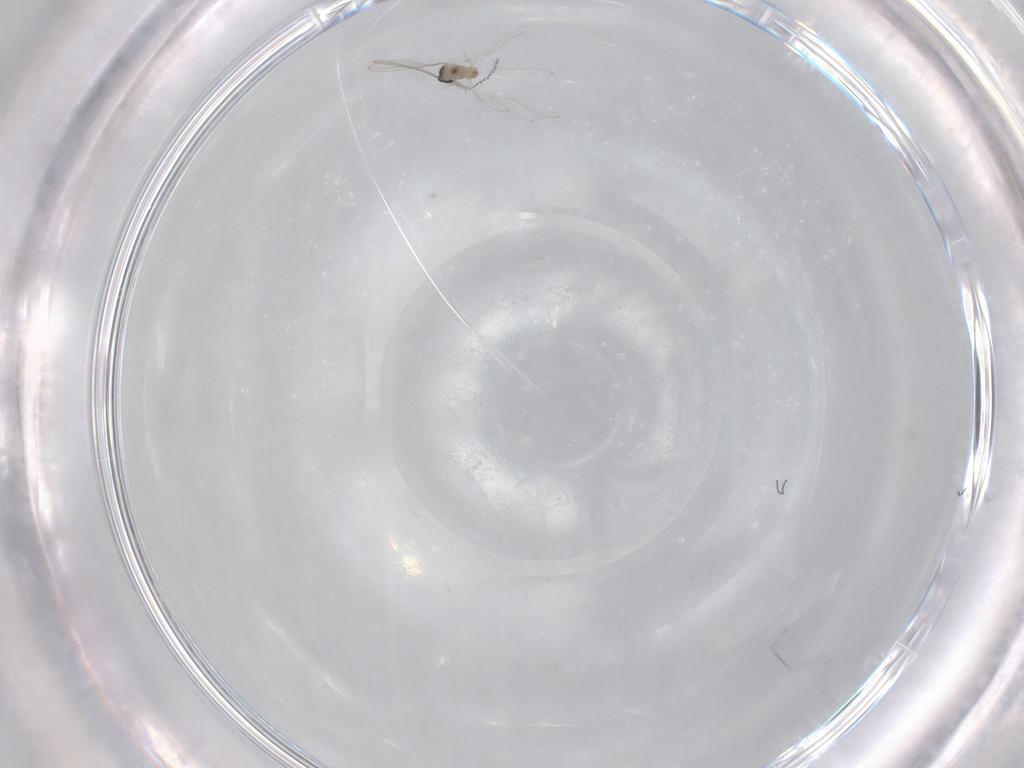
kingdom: Animalia
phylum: Arthropoda
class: Insecta
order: Diptera
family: Cecidomyiidae
